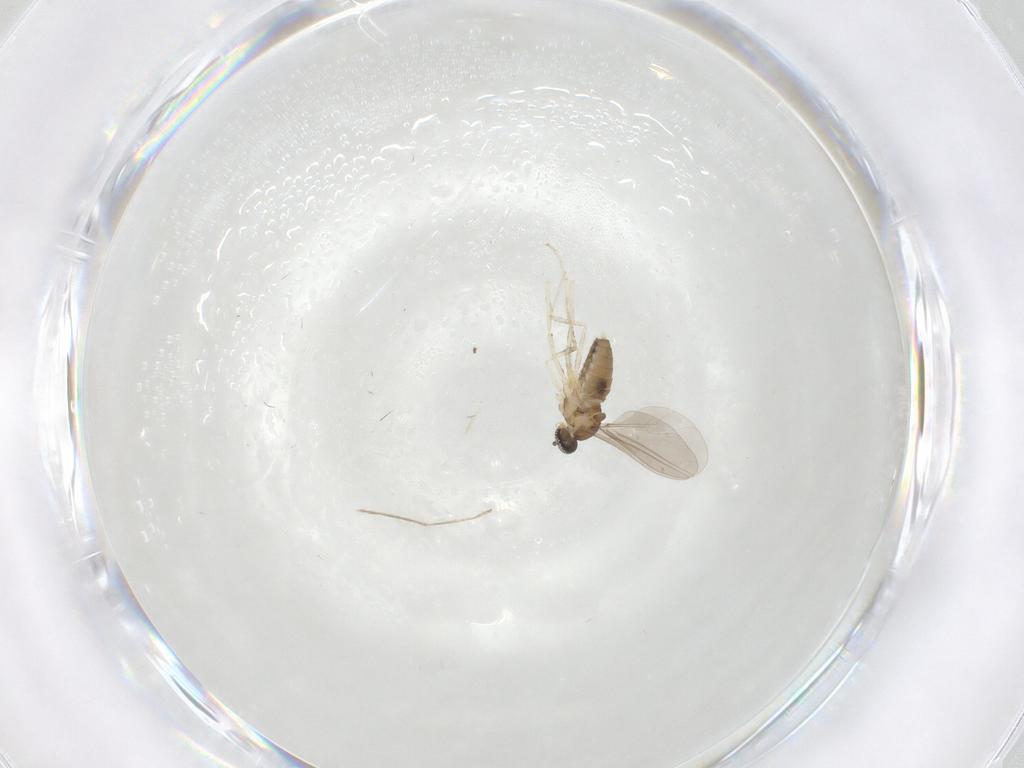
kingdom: Animalia
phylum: Arthropoda
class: Insecta
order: Diptera
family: Cecidomyiidae
